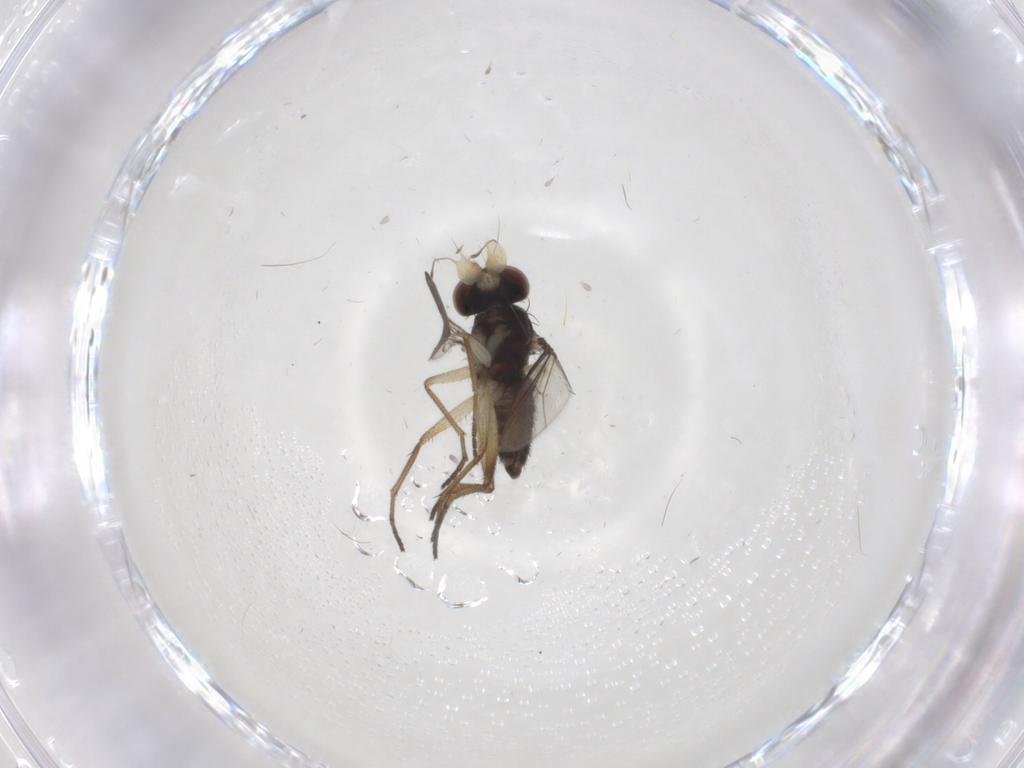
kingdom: Animalia
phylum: Arthropoda
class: Insecta
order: Diptera
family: Dolichopodidae
